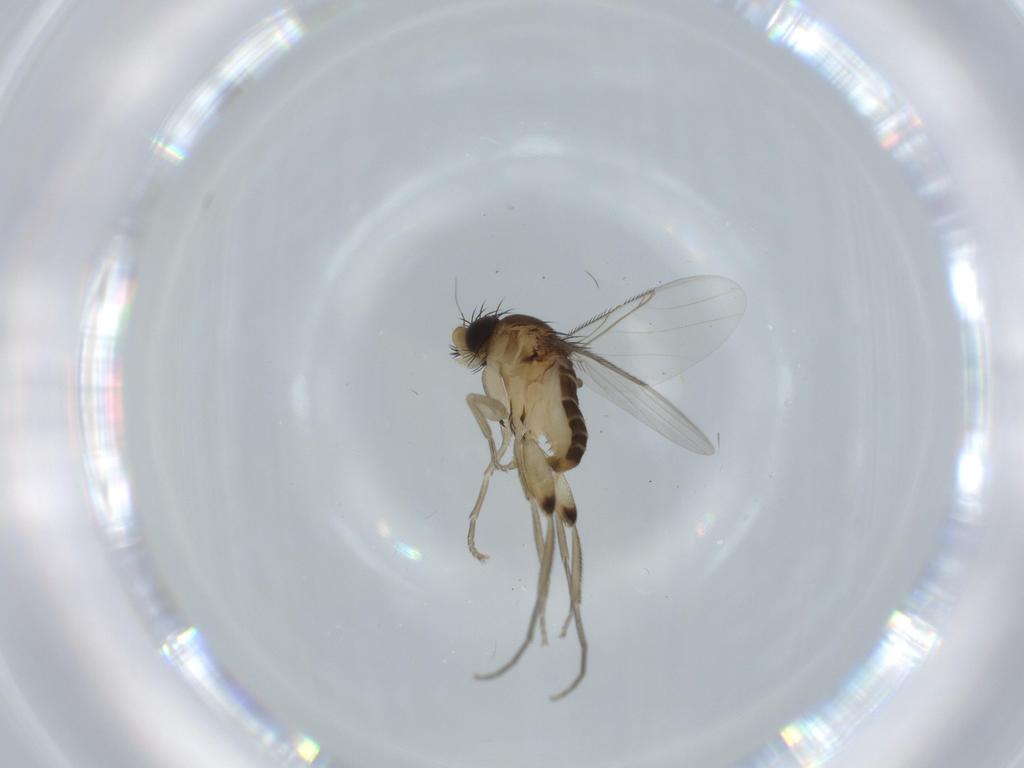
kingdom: Animalia
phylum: Arthropoda
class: Insecta
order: Diptera
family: Phoridae
